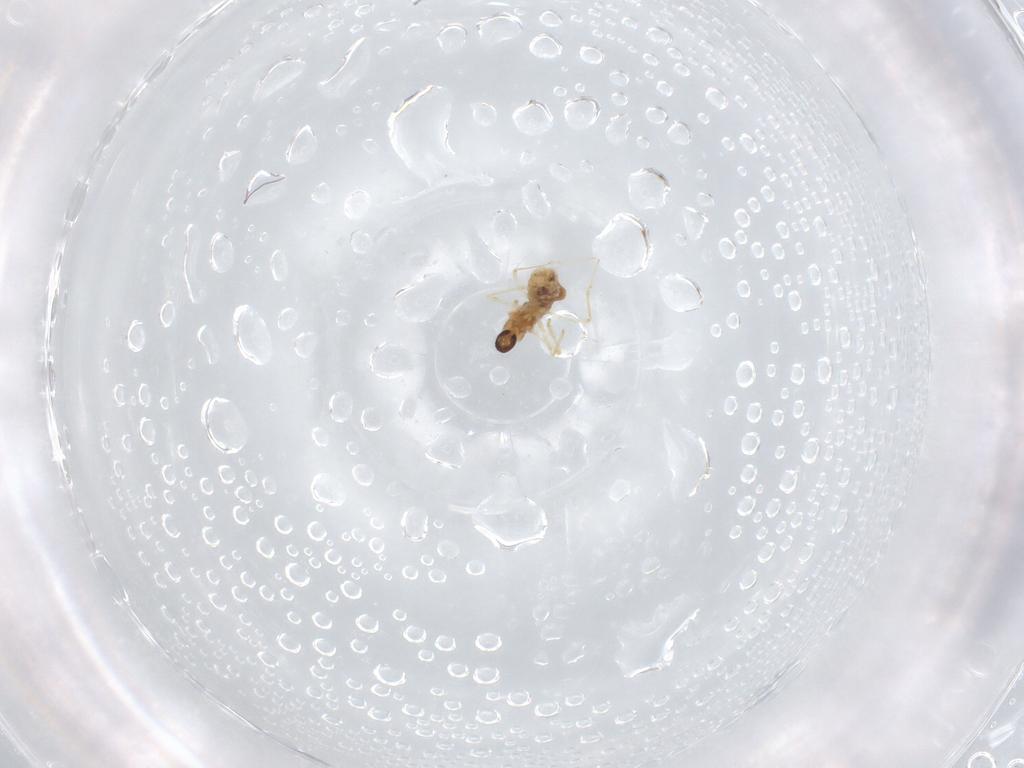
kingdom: Animalia
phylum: Arthropoda
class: Insecta
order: Diptera
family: Cecidomyiidae
